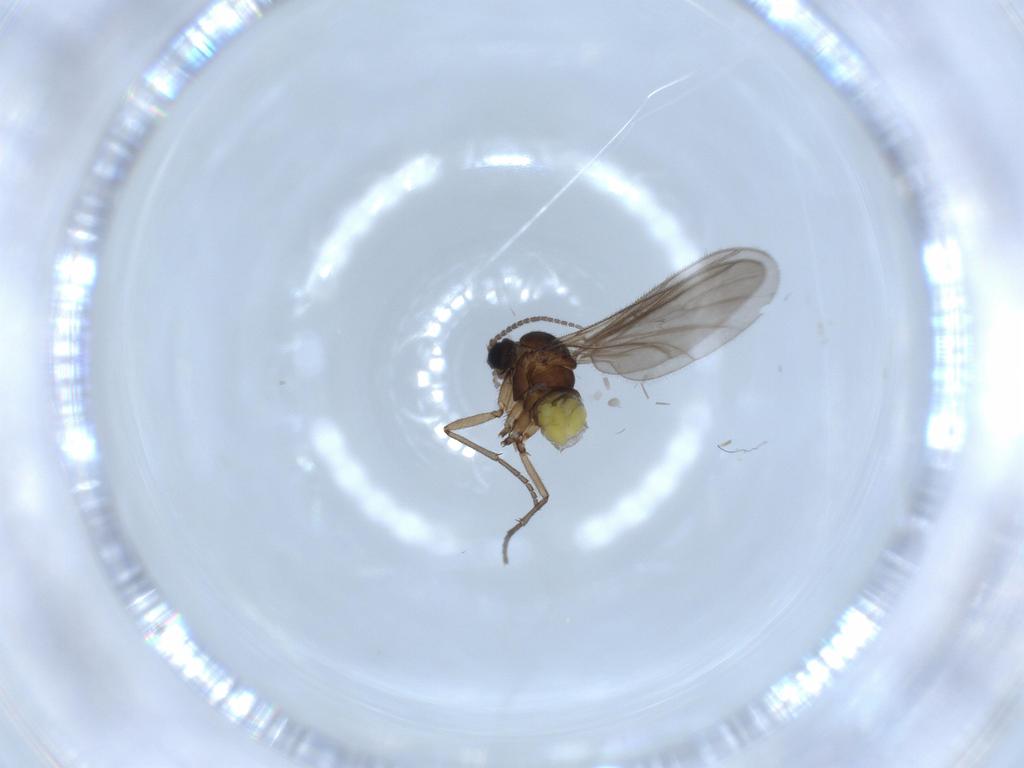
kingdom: Animalia
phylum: Arthropoda
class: Insecta
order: Diptera
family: Sciaridae
